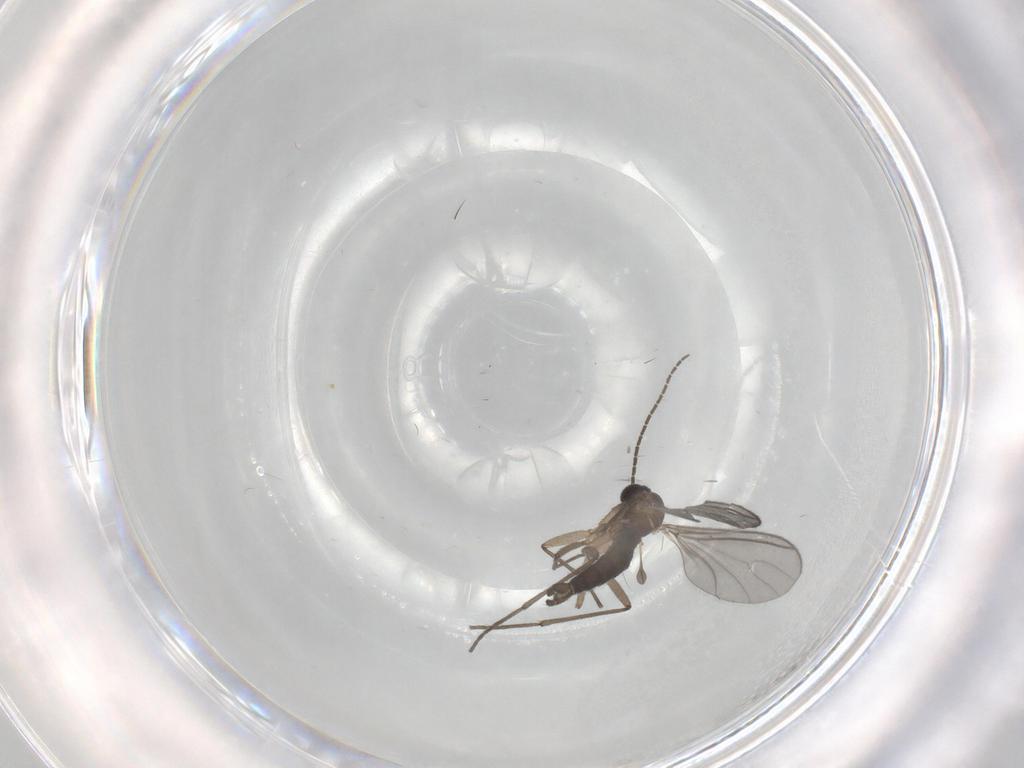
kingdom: Animalia
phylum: Arthropoda
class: Insecta
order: Diptera
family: Sciaridae
